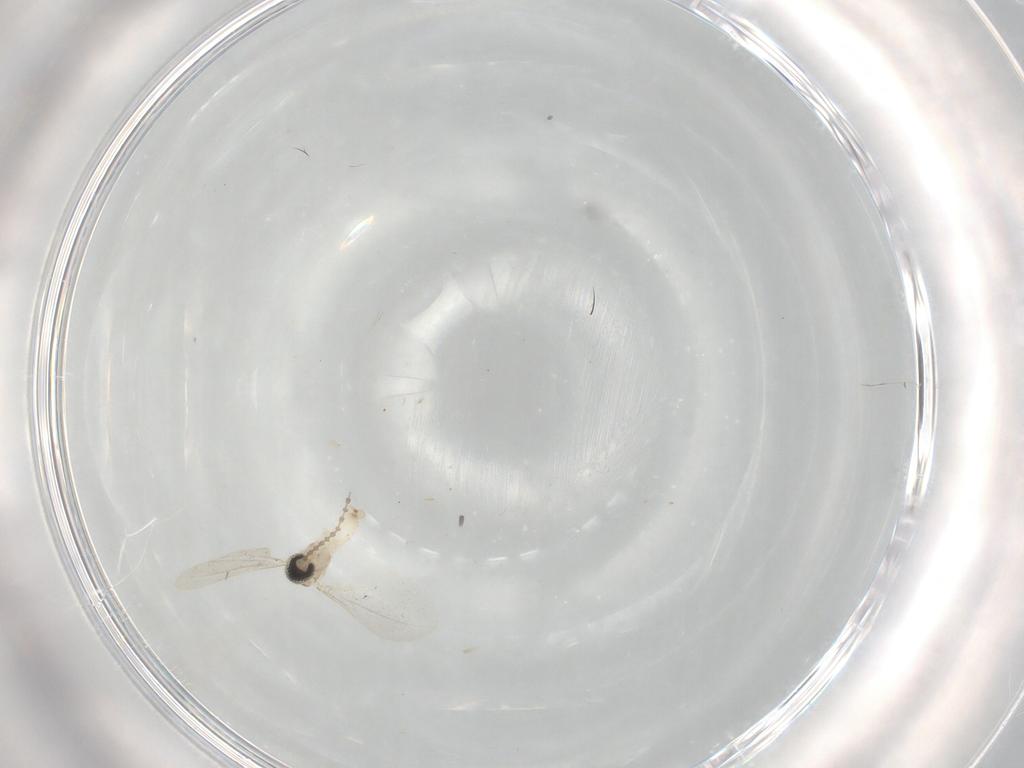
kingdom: Animalia
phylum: Arthropoda
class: Insecta
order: Diptera
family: Cecidomyiidae
